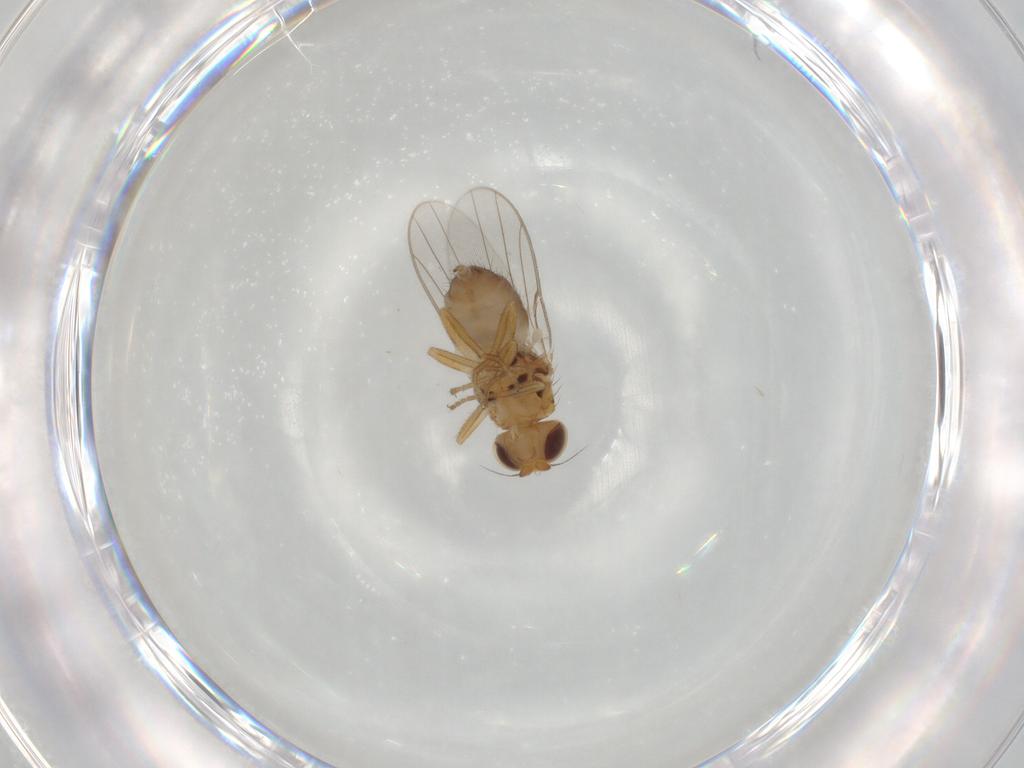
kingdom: Animalia
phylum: Arthropoda
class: Insecta
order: Diptera
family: Chloropidae
